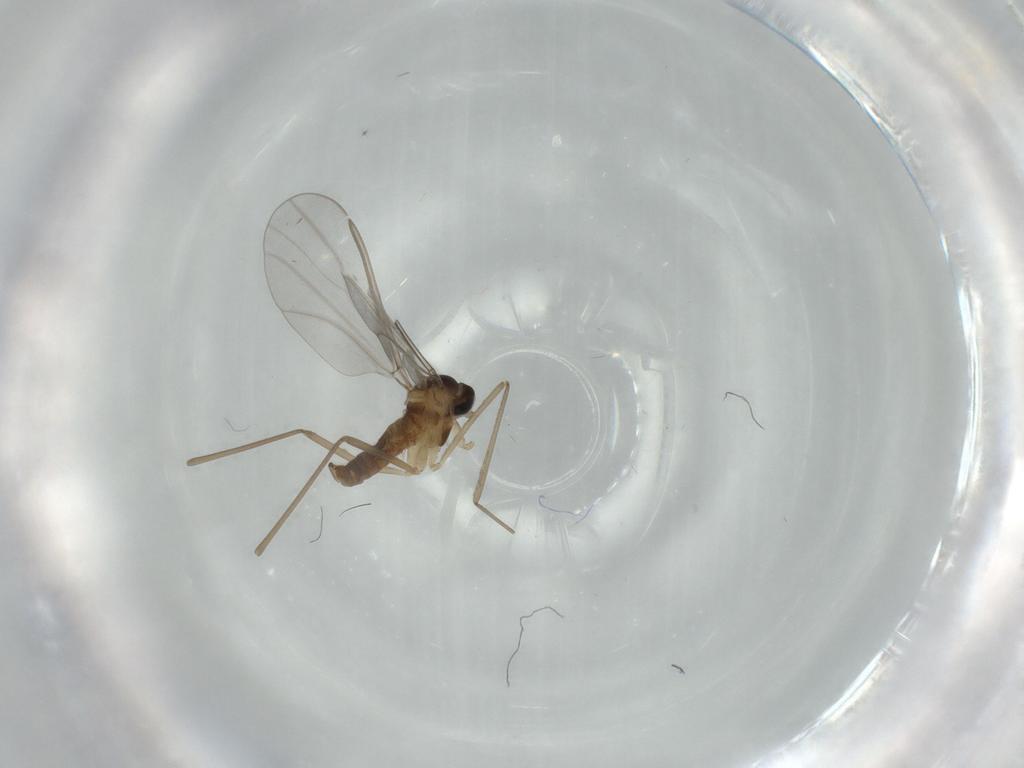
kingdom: Animalia
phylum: Arthropoda
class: Insecta
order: Diptera
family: Cecidomyiidae
